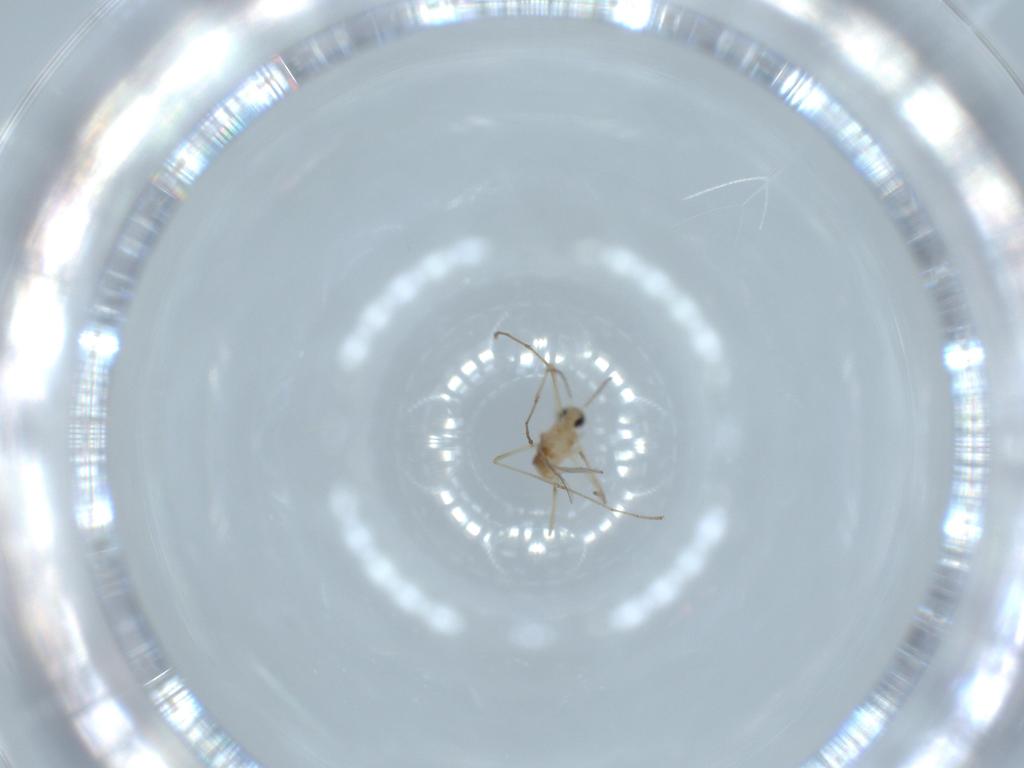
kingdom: Animalia
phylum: Arthropoda
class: Insecta
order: Diptera
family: Chloropidae
